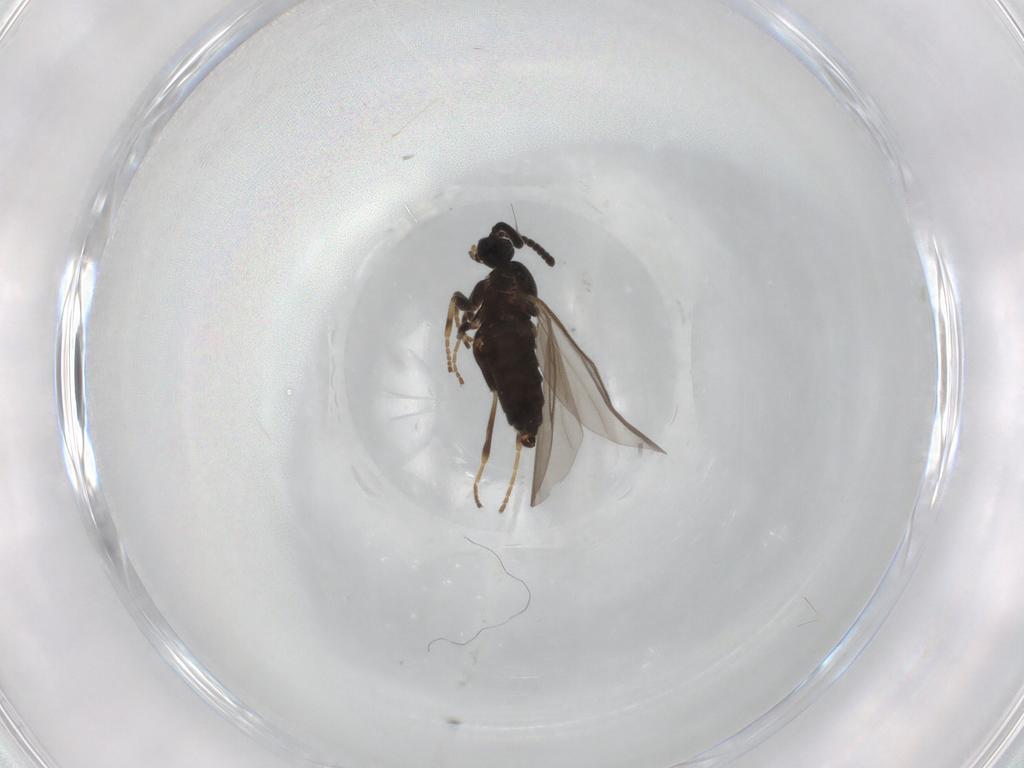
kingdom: Animalia
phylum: Arthropoda
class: Insecta
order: Diptera
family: Scatopsidae
